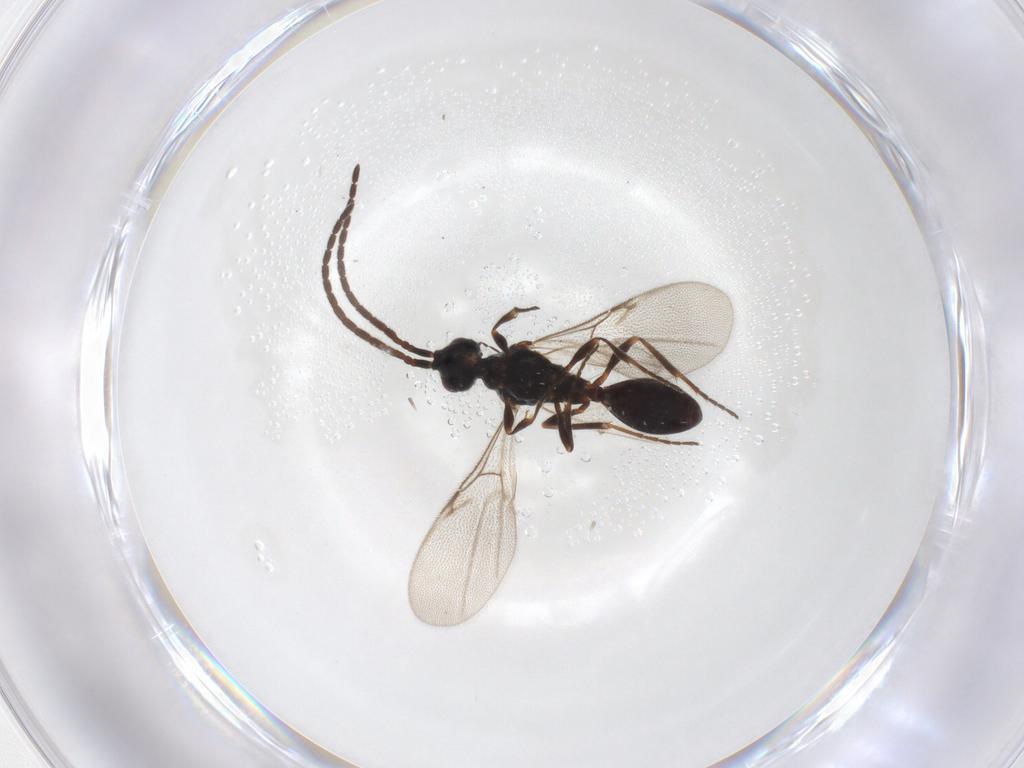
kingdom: Animalia
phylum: Arthropoda
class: Insecta
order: Hymenoptera
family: Diapriidae
